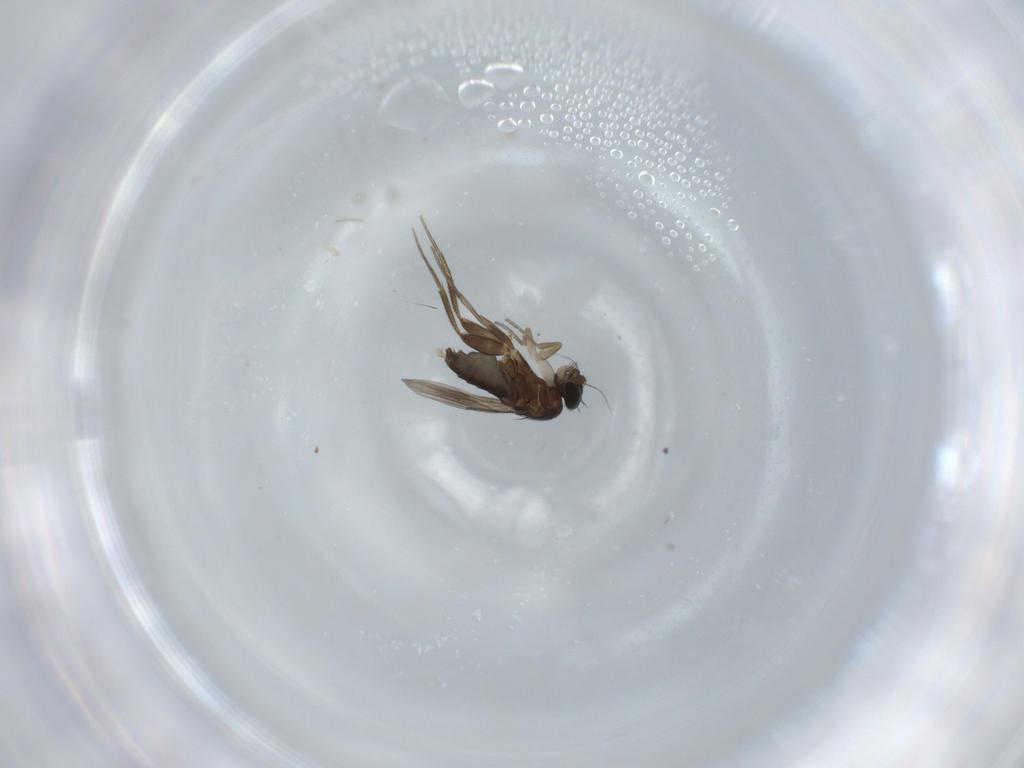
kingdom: Animalia
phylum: Arthropoda
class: Insecta
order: Diptera
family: Phoridae
